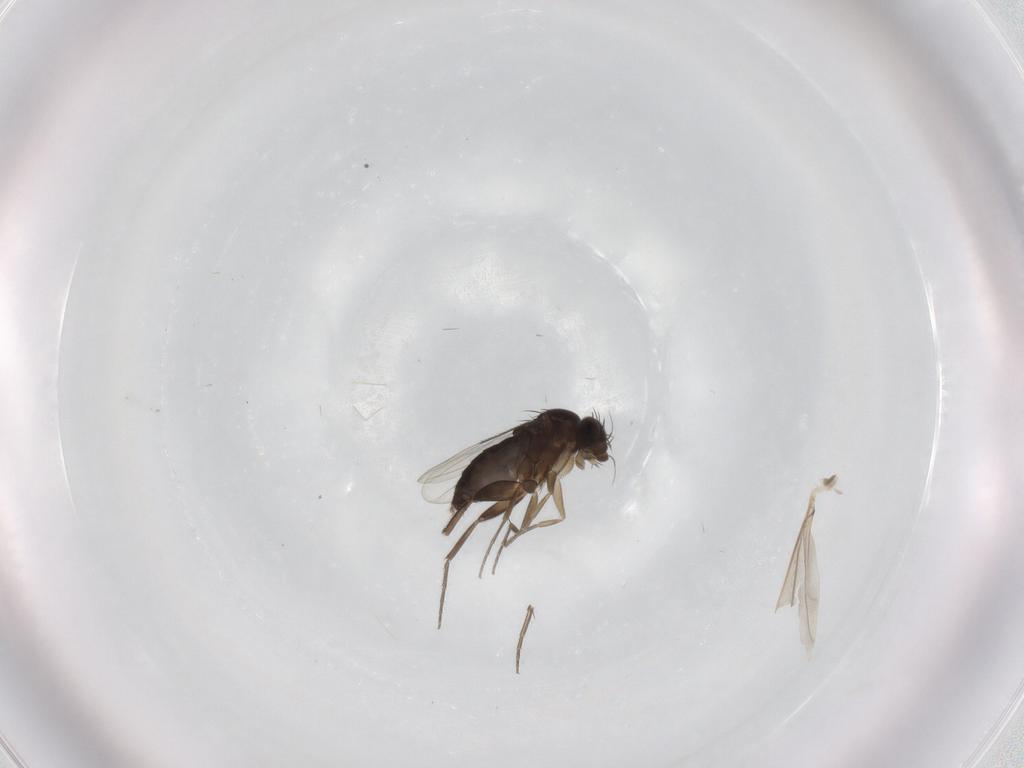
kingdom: Animalia
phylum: Arthropoda
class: Insecta
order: Diptera
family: Phoridae
